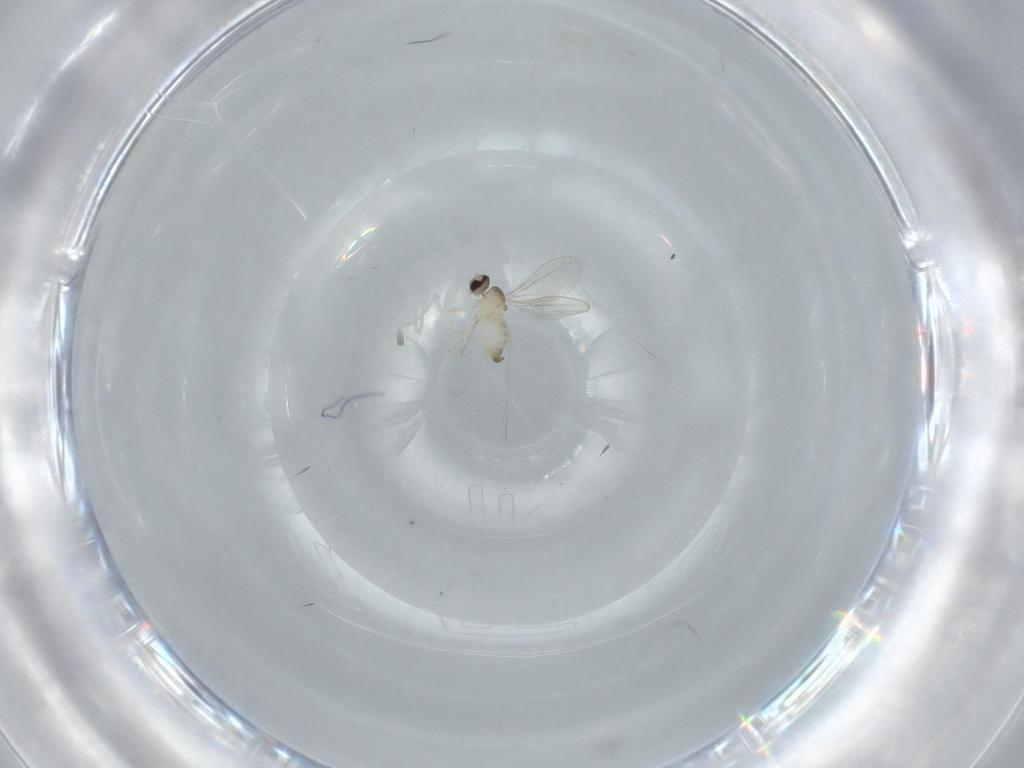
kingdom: Animalia
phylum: Arthropoda
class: Insecta
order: Diptera
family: Cecidomyiidae
